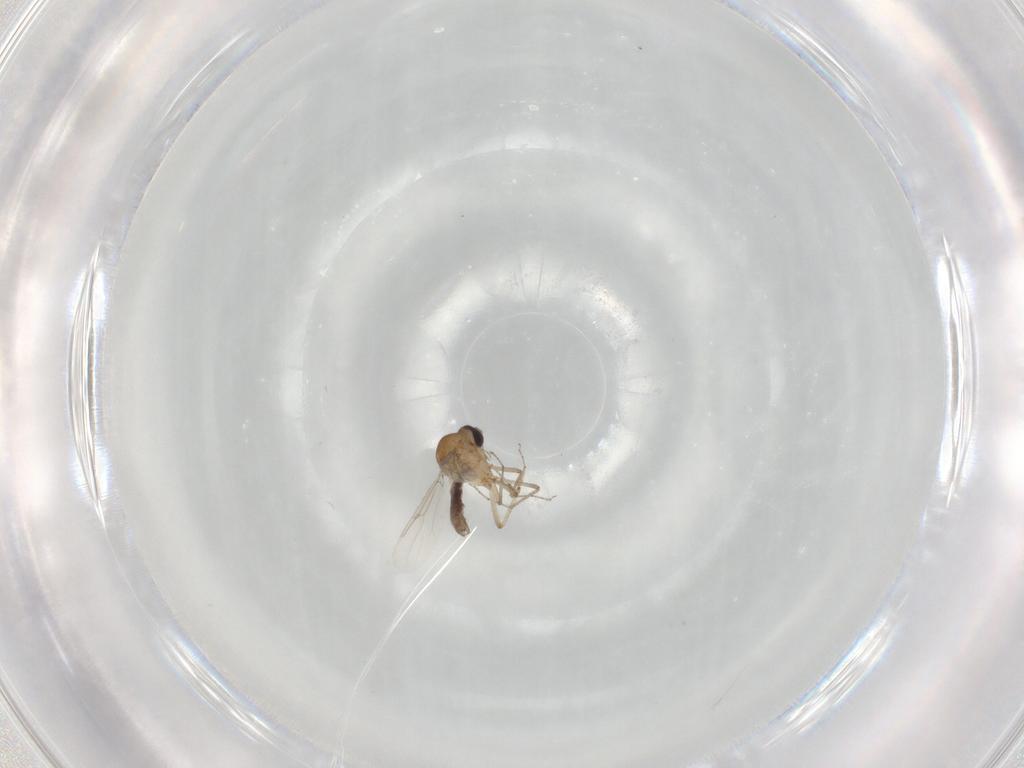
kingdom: Animalia
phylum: Arthropoda
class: Insecta
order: Diptera
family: Ceratopogonidae
